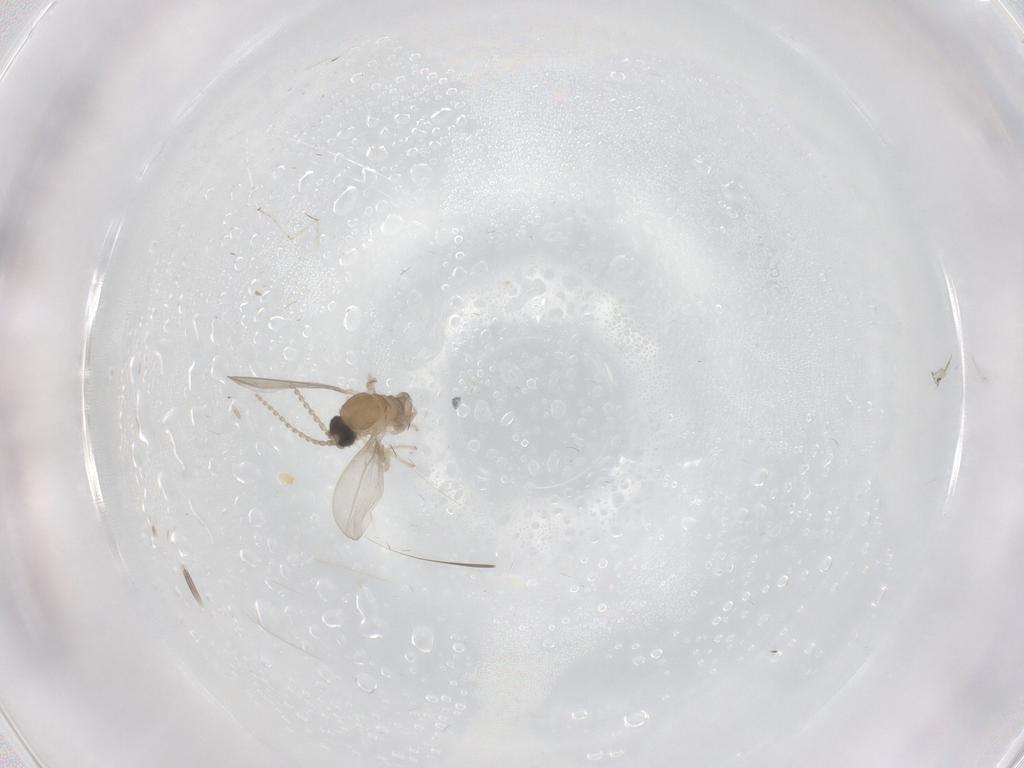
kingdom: Animalia
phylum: Arthropoda
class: Insecta
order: Diptera
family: Cecidomyiidae
